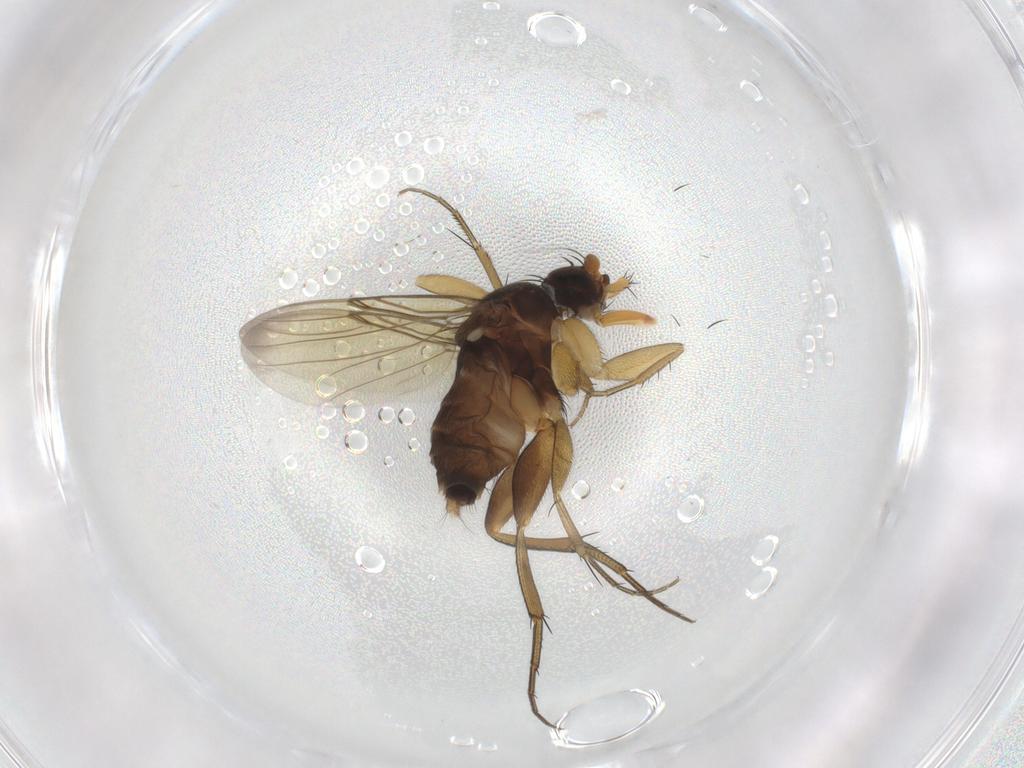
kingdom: Animalia
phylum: Arthropoda
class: Insecta
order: Diptera
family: Phoridae
